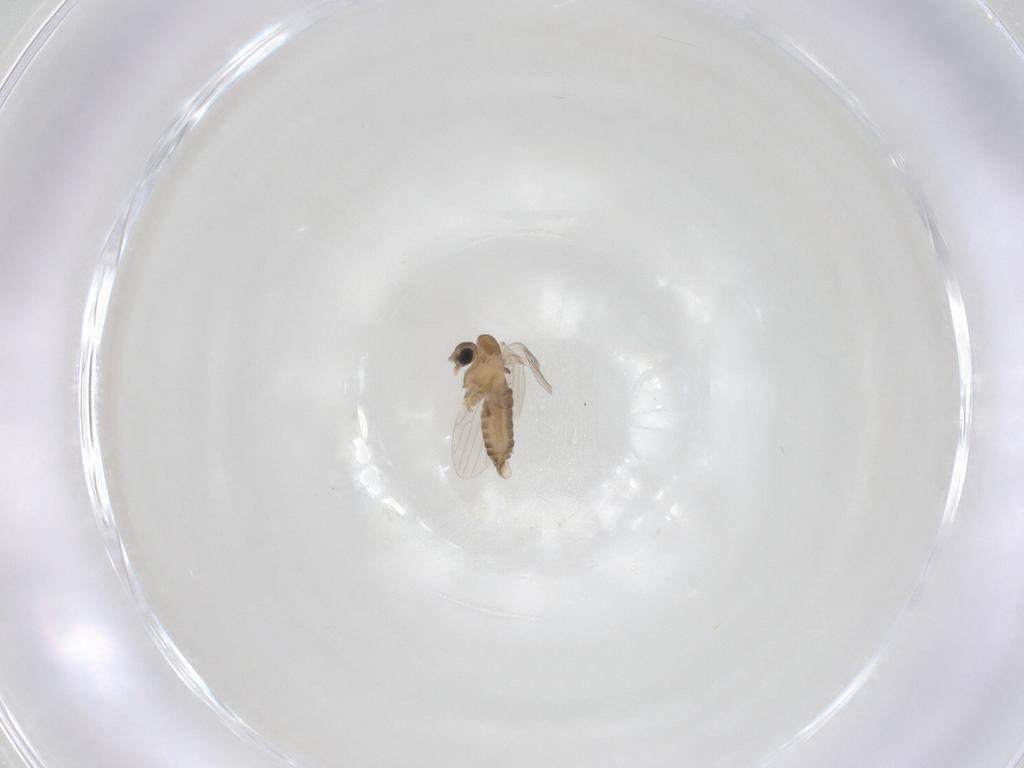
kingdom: Animalia
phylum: Arthropoda
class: Insecta
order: Diptera
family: Psychodidae
